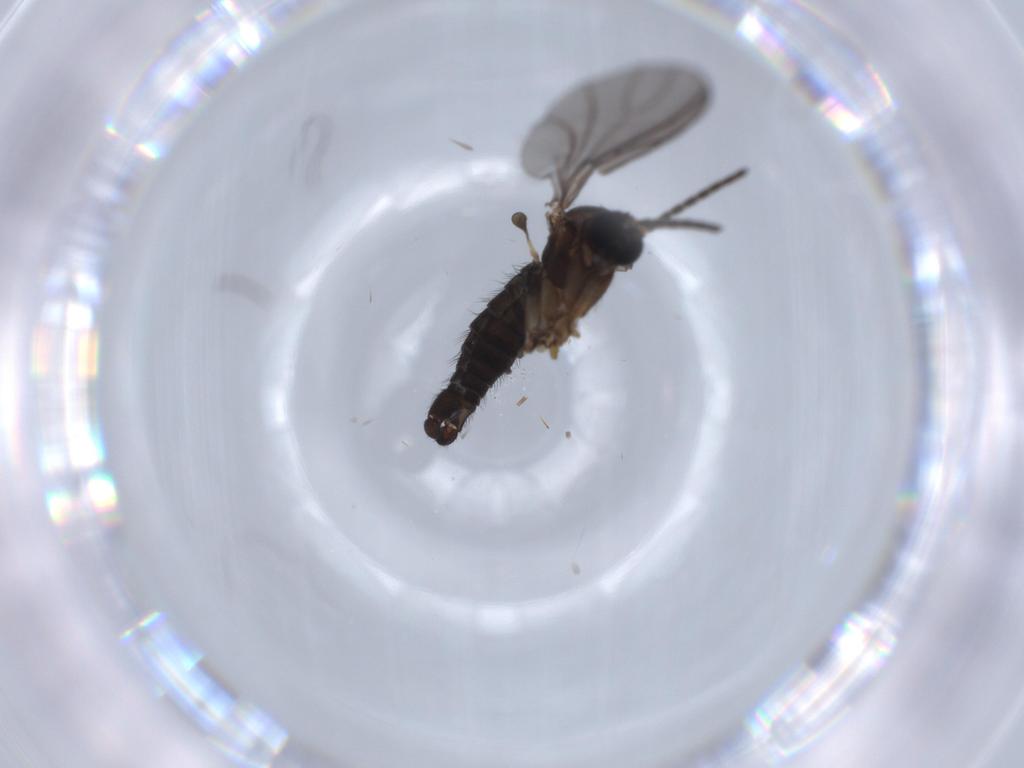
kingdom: Animalia
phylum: Arthropoda
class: Insecta
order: Diptera
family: Sciaridae
